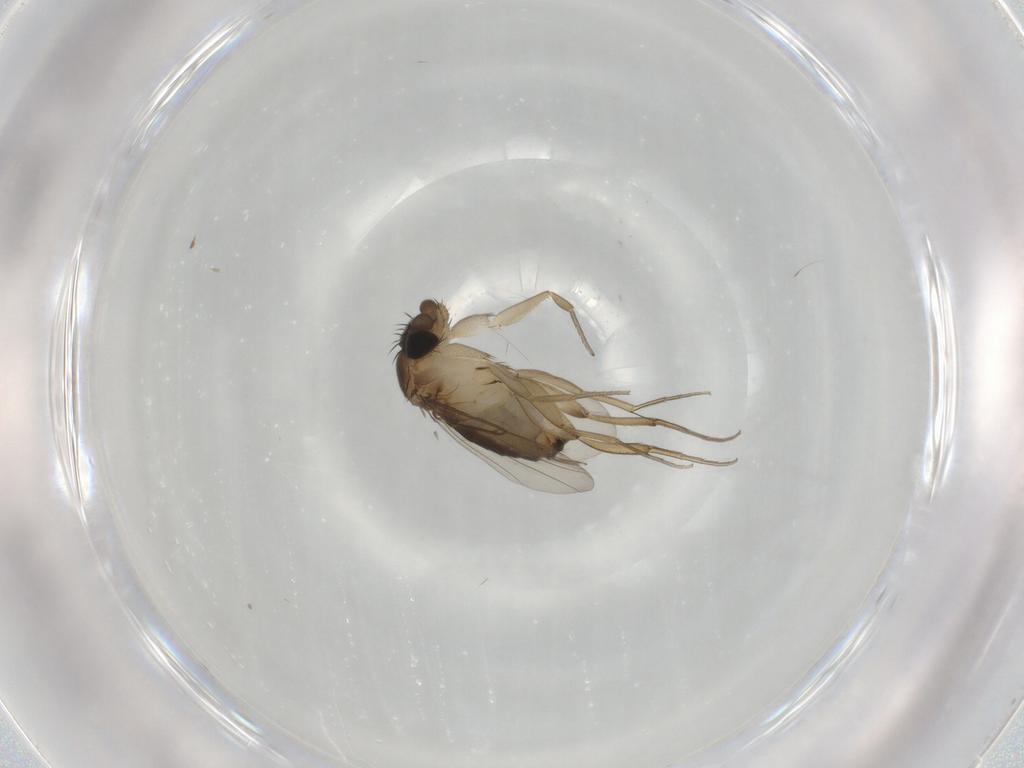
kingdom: Animalia
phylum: Arthropoda
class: Insecta
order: Diptera
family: Phoridae
